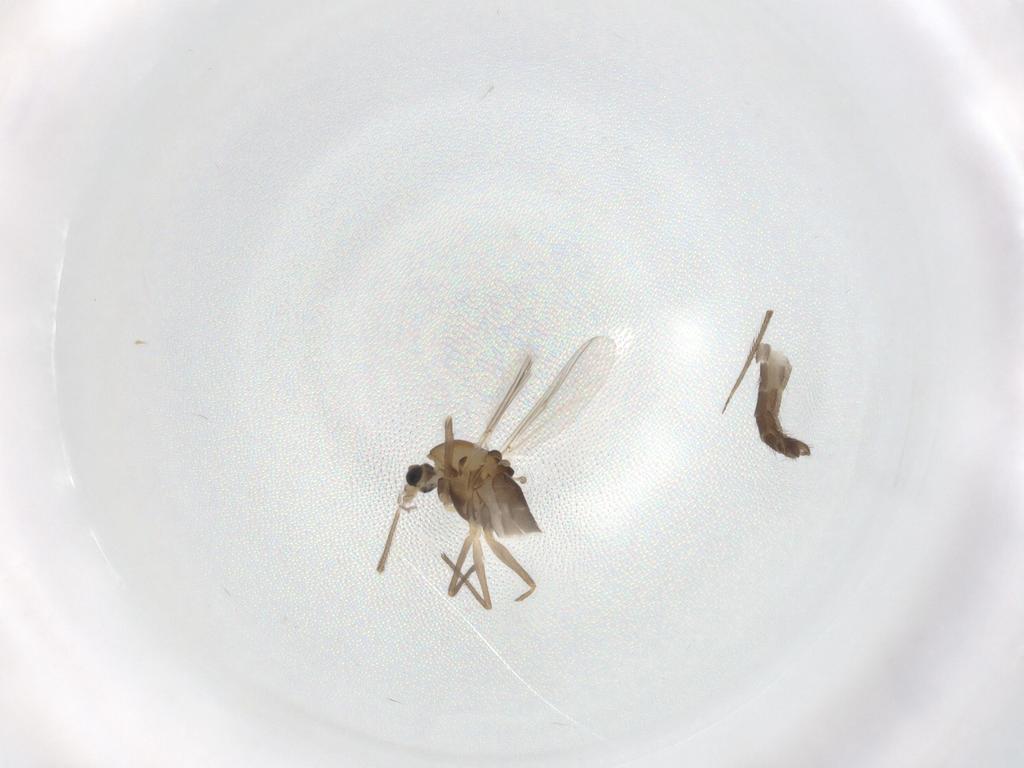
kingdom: Animalia
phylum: Arthropoda
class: Insecta
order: Diptera
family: Chironomidae
